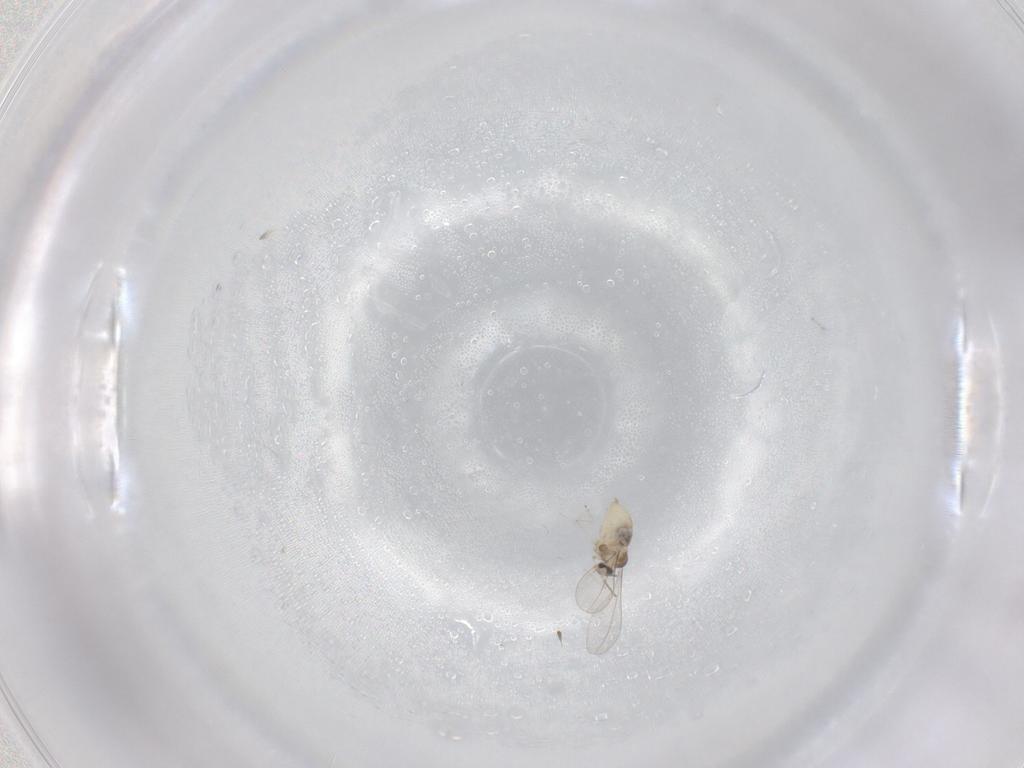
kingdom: Animalia
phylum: Arthropoda
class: Insecta
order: Diptera
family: Cecidomyiidae
